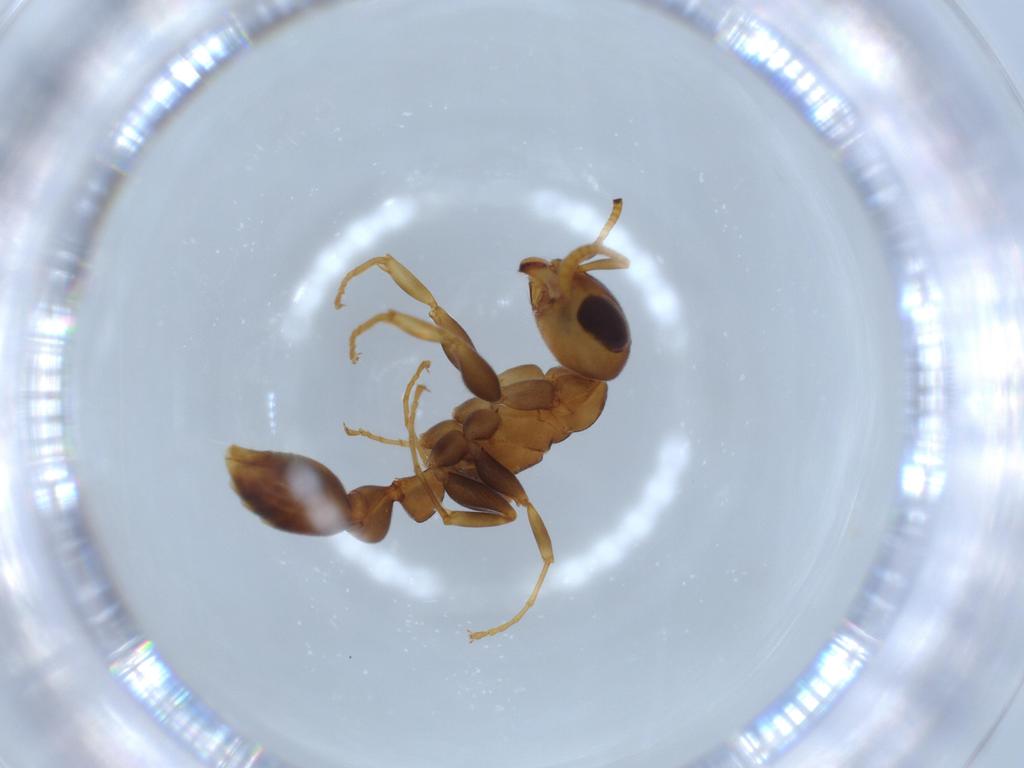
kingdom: Animalia
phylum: Arthropoda
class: Insecta
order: Hymenoptera
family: Formicidae
